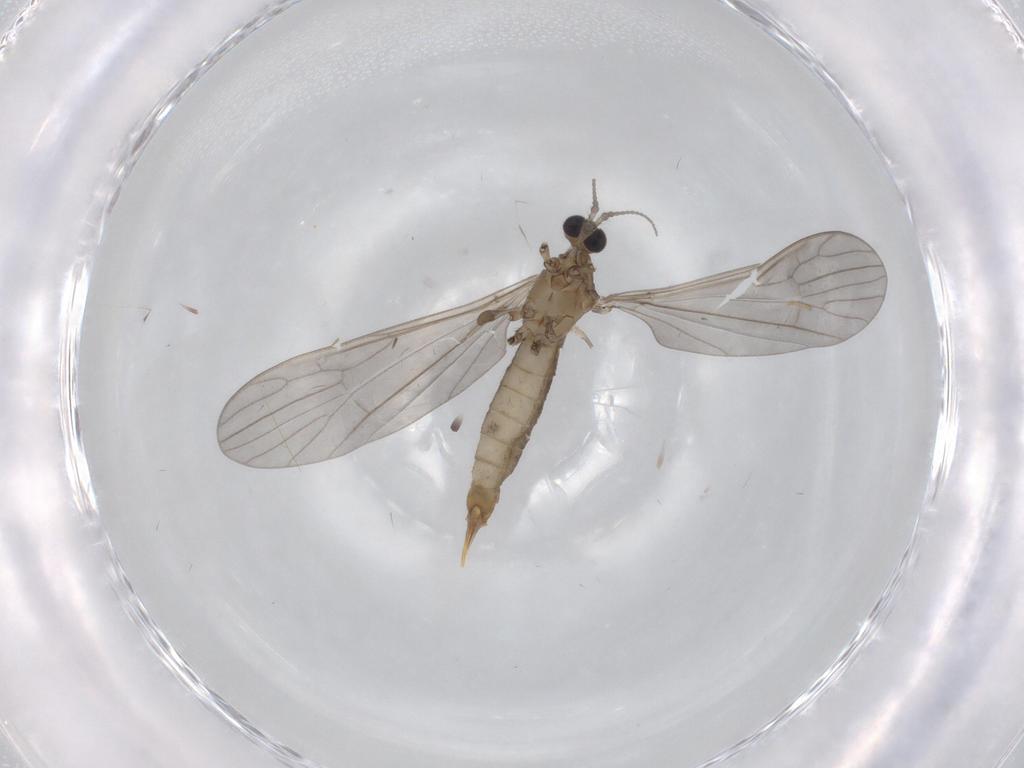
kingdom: Animalia
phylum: Arthropoda
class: Insecta
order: Diptera
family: Limoniidae
